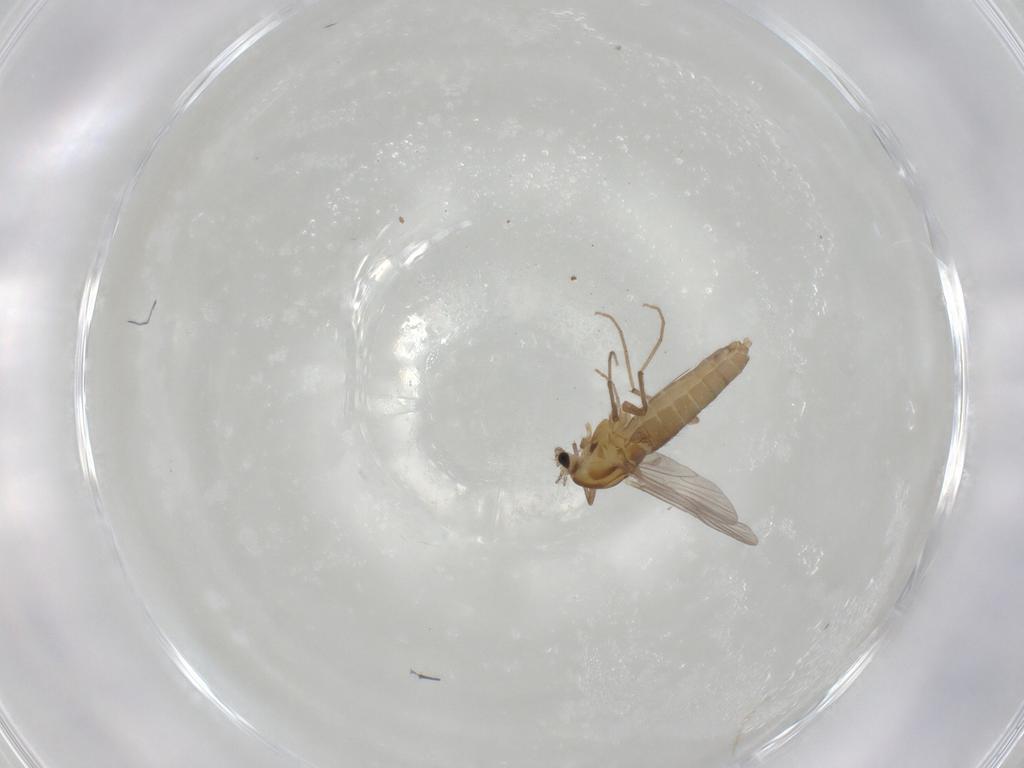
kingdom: Animalia
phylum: Arthropoda
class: Insecta
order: Diptera
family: Chironomidae
